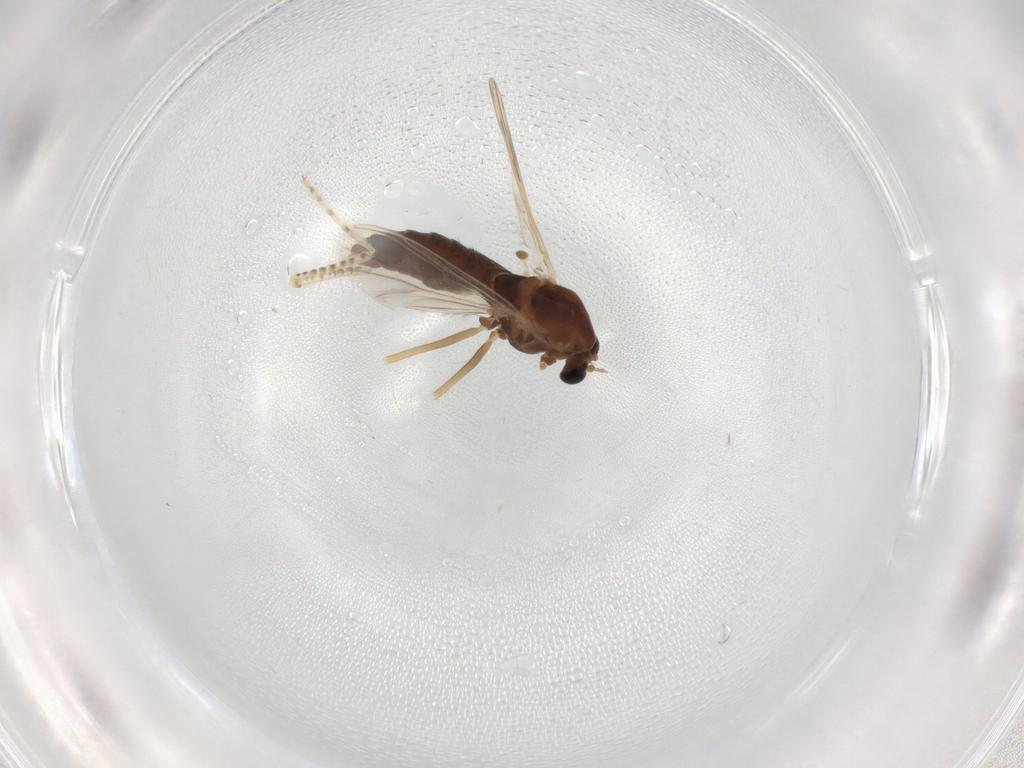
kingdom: Animalia
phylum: Arthropoda
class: Insecta
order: Diptera
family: Chironomidae
